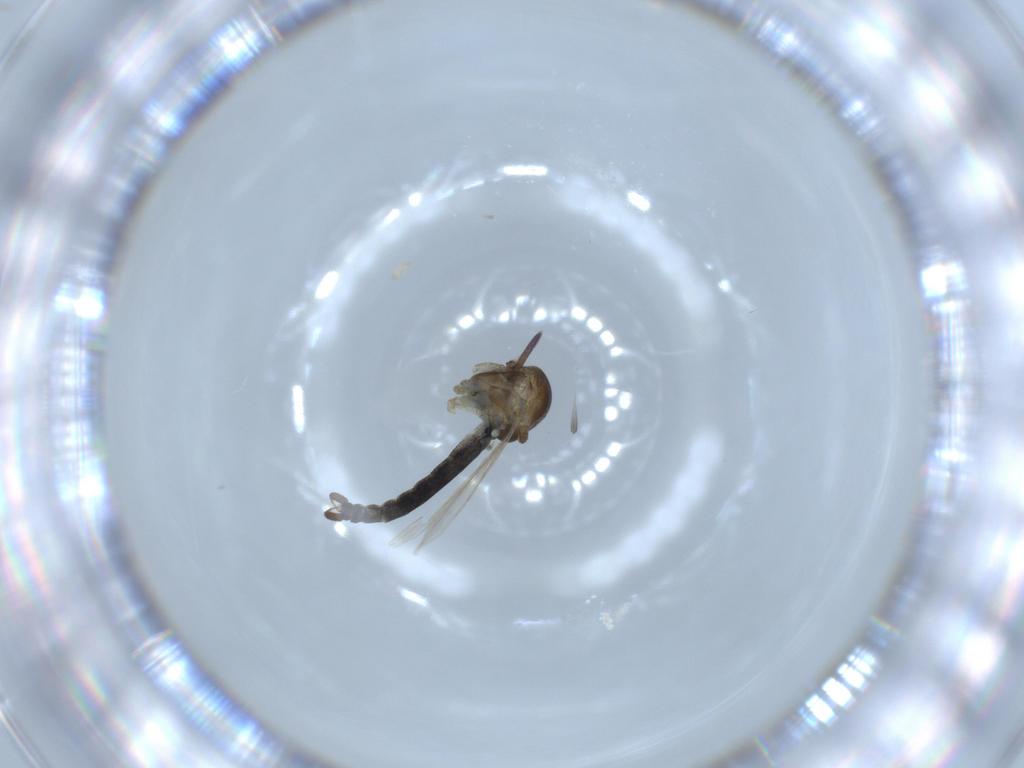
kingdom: Animalia
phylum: Arthropoda
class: Insecta
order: Diptera
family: Ceratopogonidae
